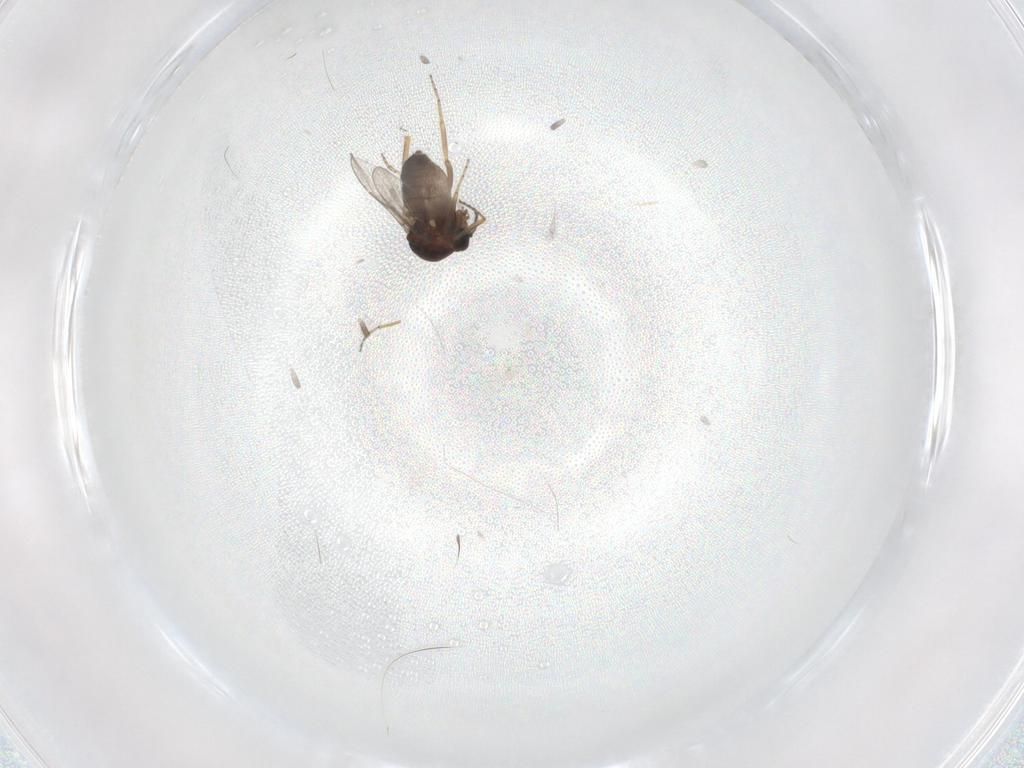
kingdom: Animalia
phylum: Arthropoda
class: Insecta
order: Diptera
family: Ceratopogonidae
